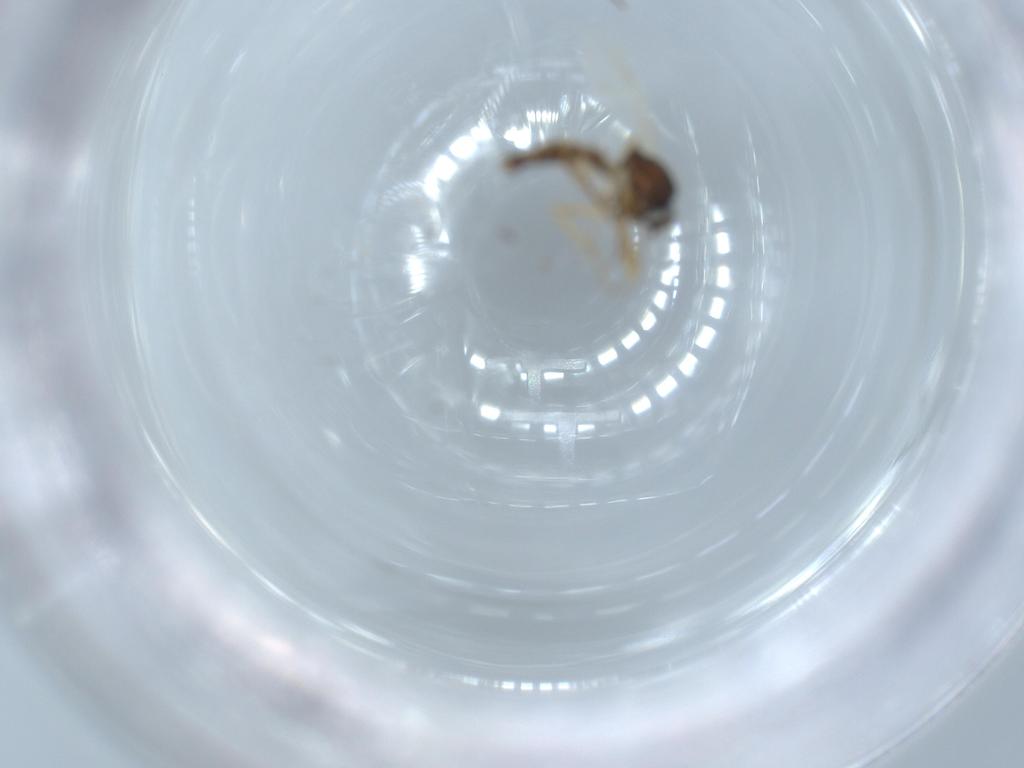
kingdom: Animalia
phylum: Arthropoda
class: Insecta
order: Diptera
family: Ceratopogonidae
